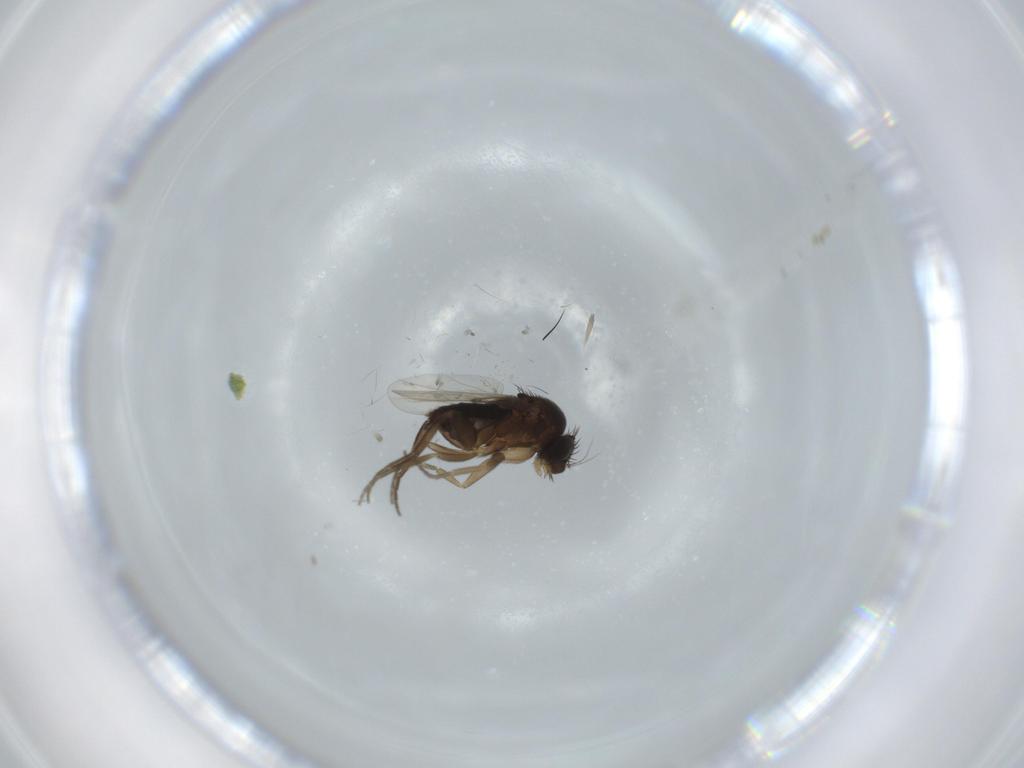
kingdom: Animalia
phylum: Arthropoda
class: Insecta
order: Diptera
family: Phoridae
